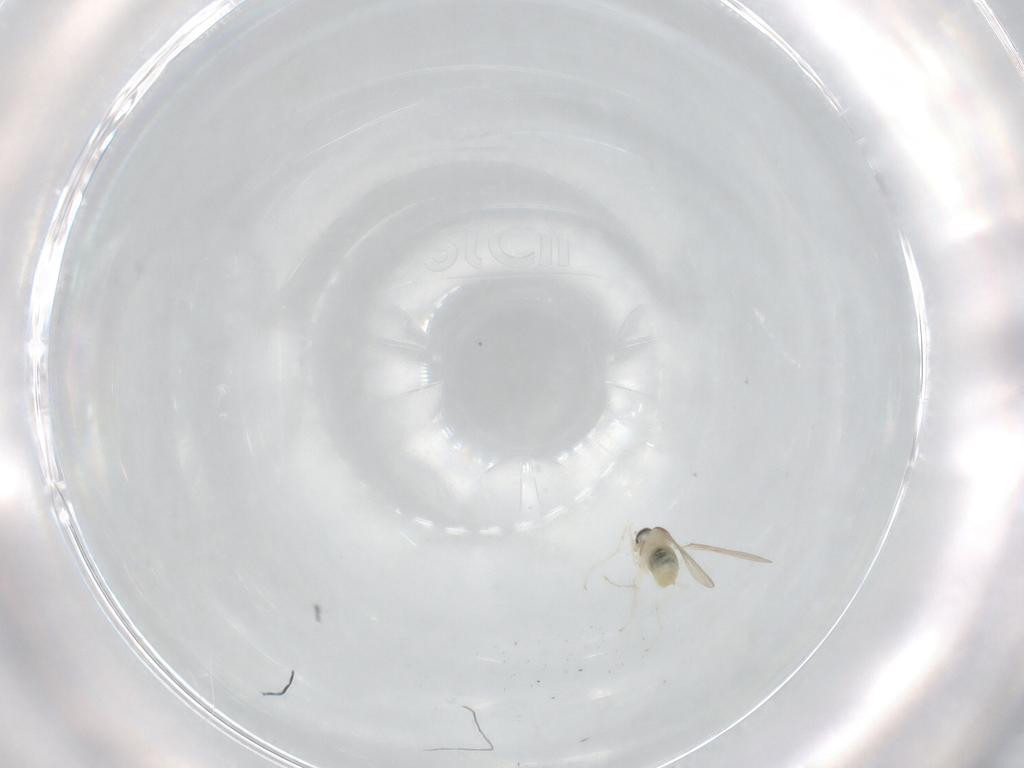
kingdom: Animalia
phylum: Arthropoda
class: Insecta
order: Diptera
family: Cecidomyiidae
